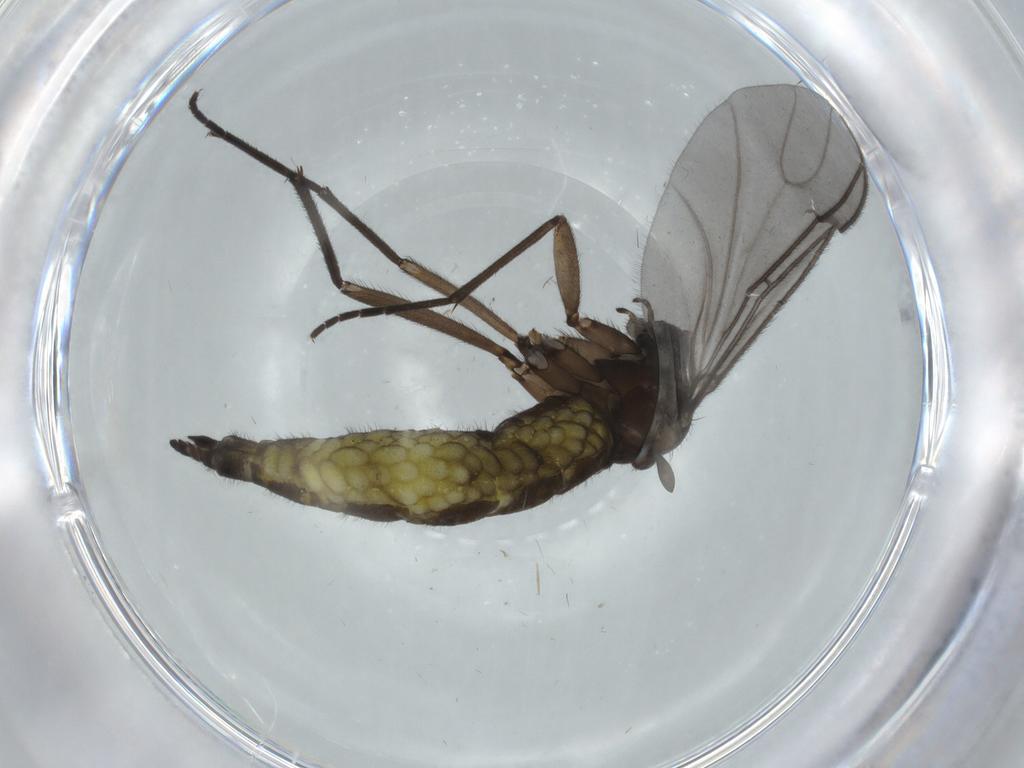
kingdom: Animalia
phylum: Arthropoda
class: Insecta
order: Diptera
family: Sciaridae
